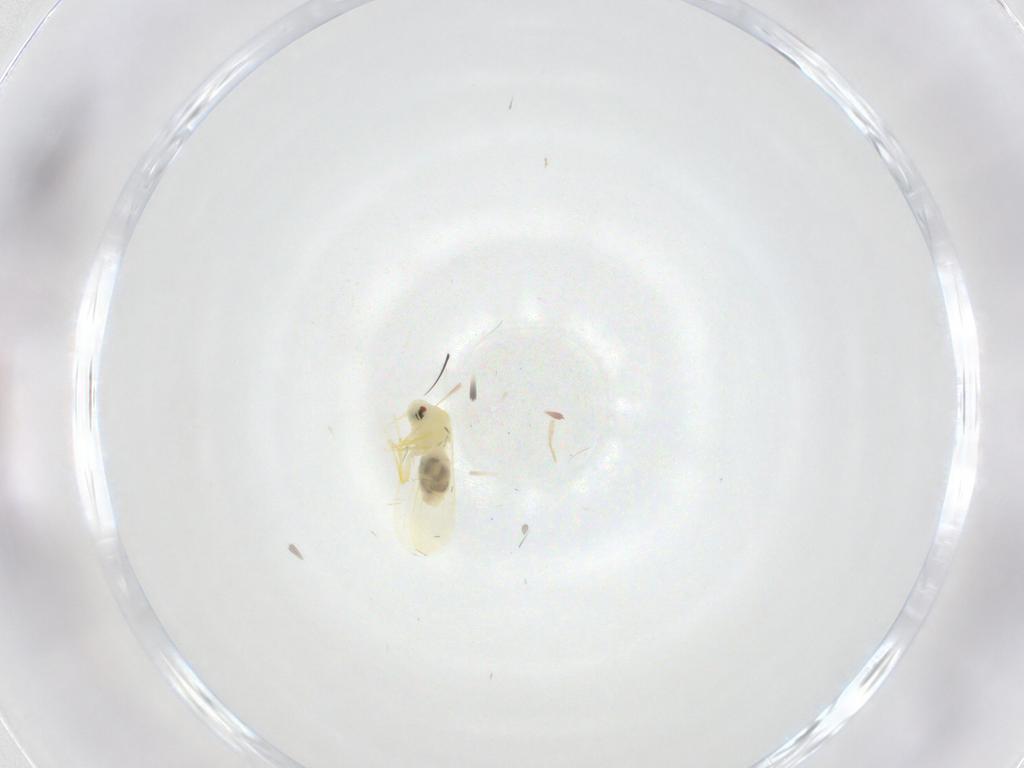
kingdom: Animalia
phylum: Arthropoda
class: Insecta
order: Hemiptera
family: Aleyrodidae
